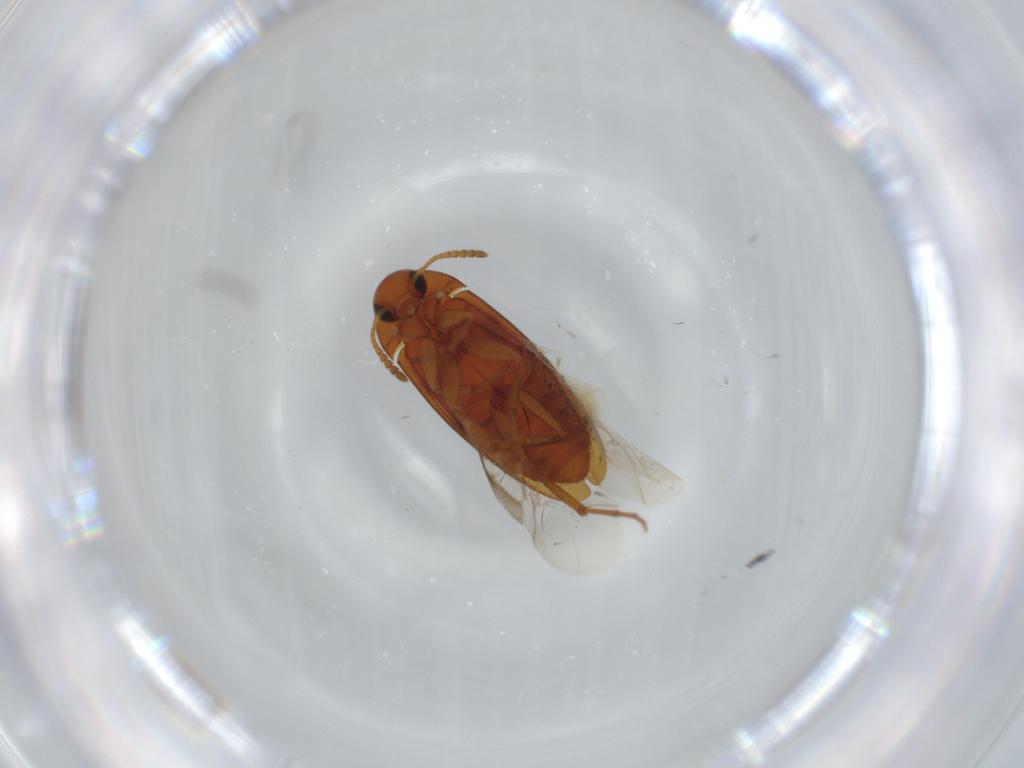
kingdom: Animalia
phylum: Arthropoda
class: Insecta
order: Coleoptera
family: Scraptiidae
